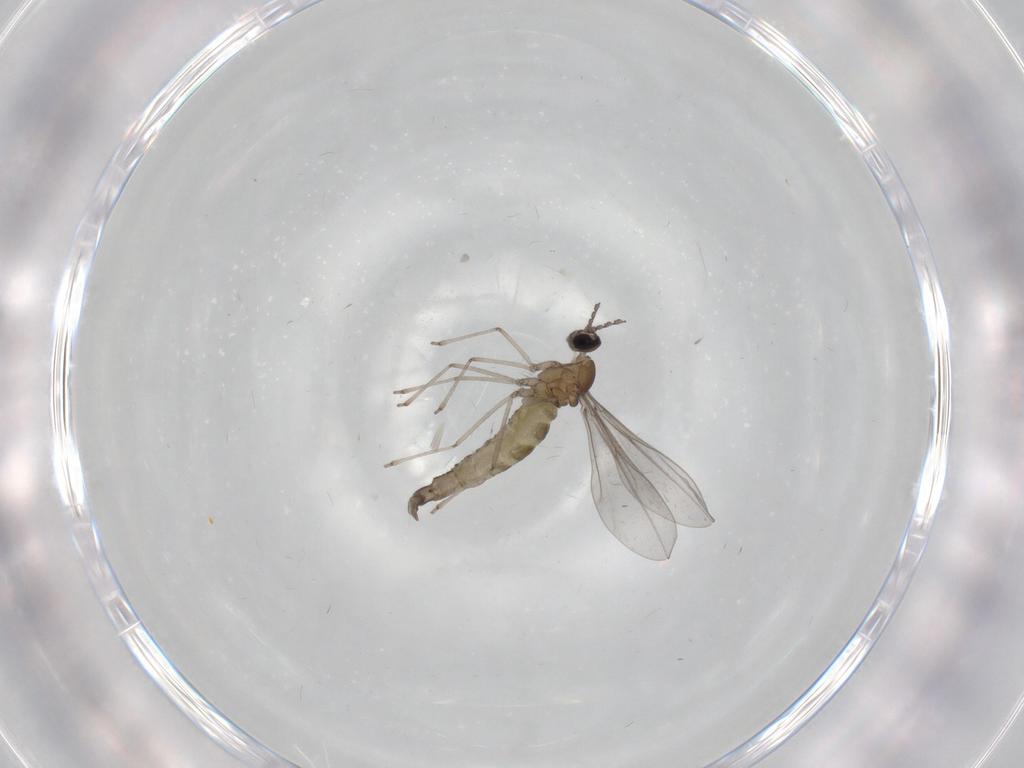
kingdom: Animalia
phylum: Arthropoda
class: Insecta
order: Diptera
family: Cecidomyiidae
